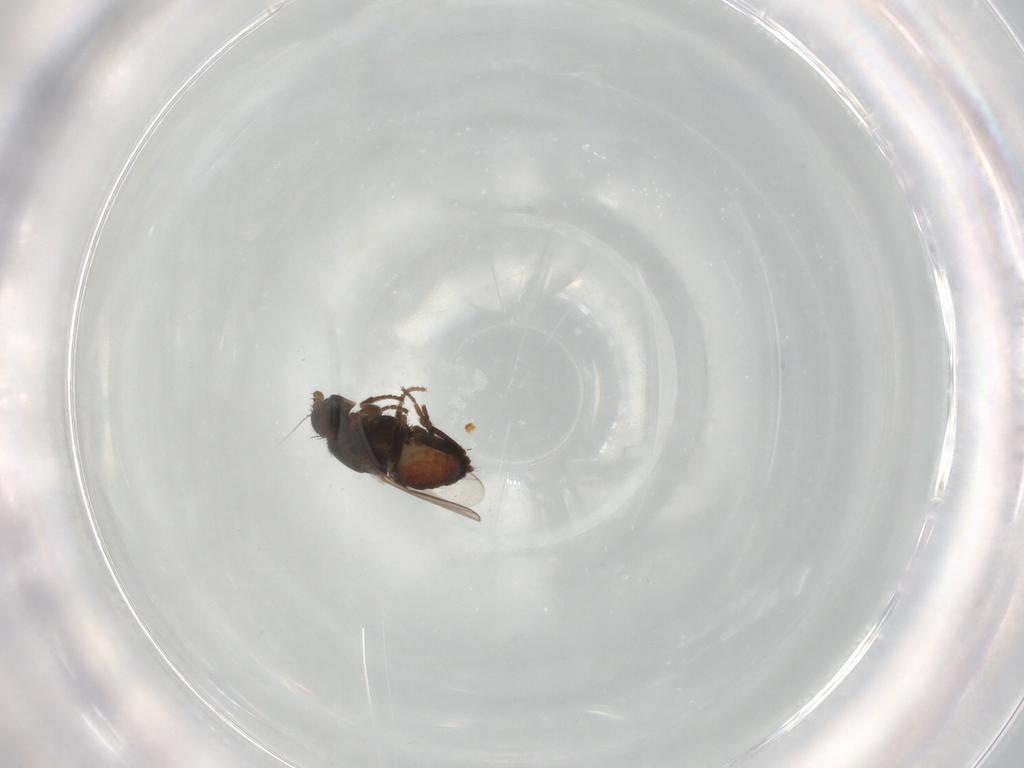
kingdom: Animalia
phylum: Arthropoda
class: Insecta
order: Diptera
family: Sphaeroceridae
